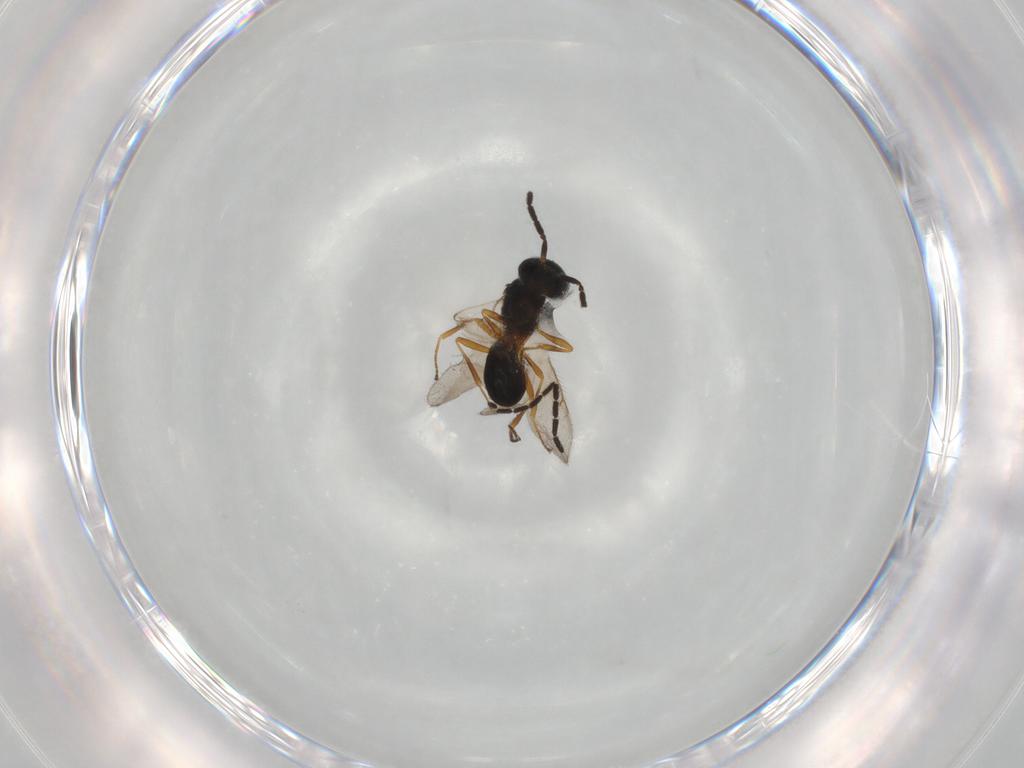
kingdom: Animalia
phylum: Arthropoda
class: Insecta
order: Hymenoptera
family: Scelionidae
